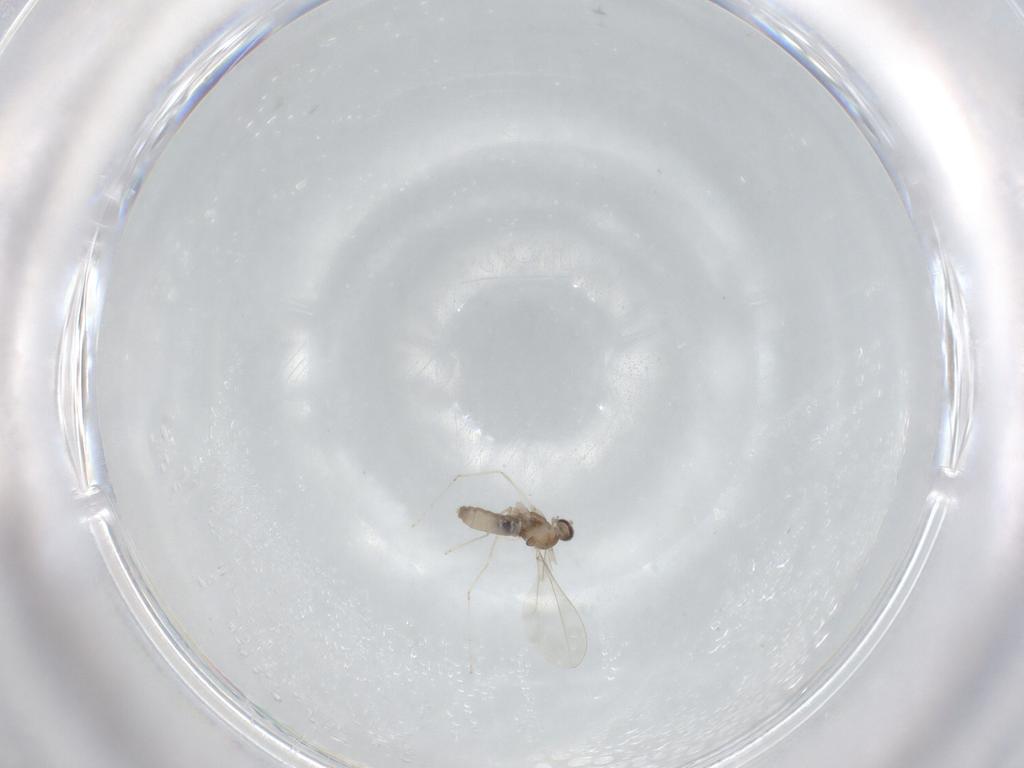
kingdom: Animalia
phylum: Arthropoda
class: Insecta
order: Diptera
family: Cecidomyiidae
